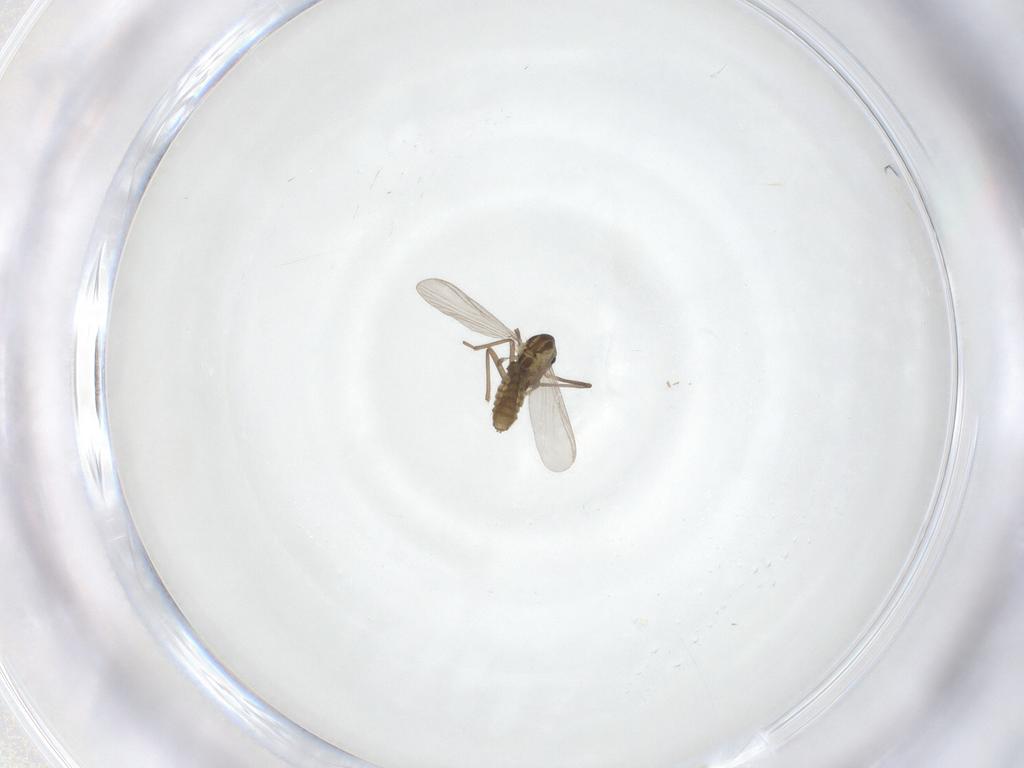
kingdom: Animalia
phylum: Arthropoda
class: Insecta
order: Diptera
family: Chironomidae
